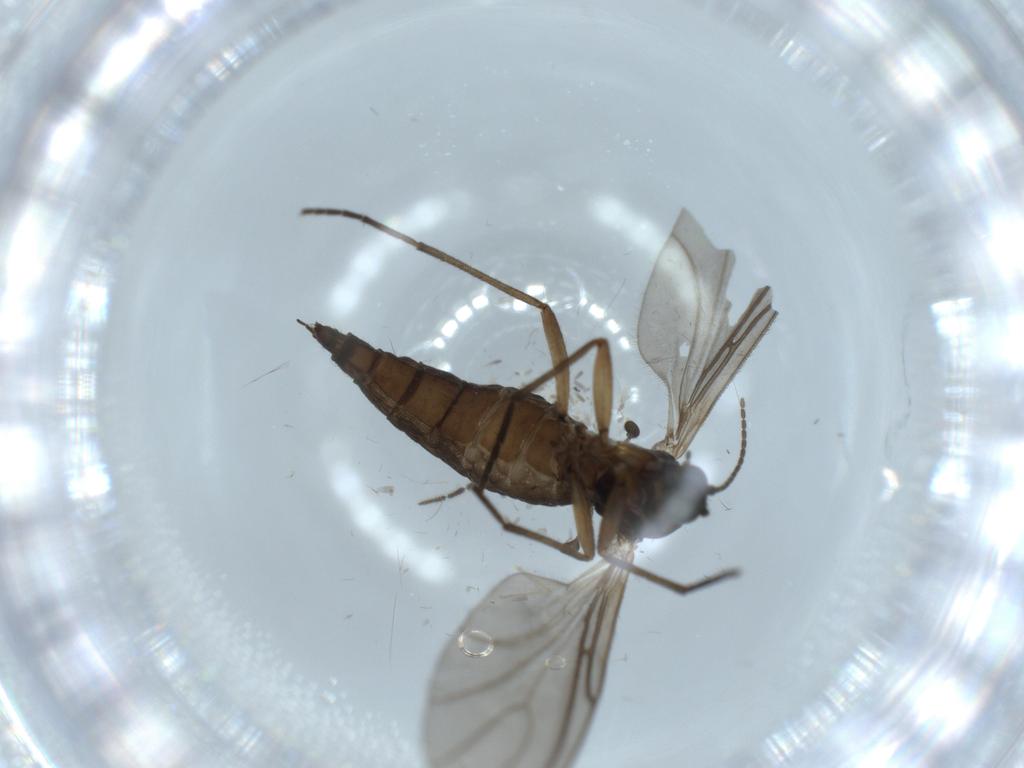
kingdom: Animalia
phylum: Arthropoda
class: Insecta
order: Diptera
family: Sciaridae
